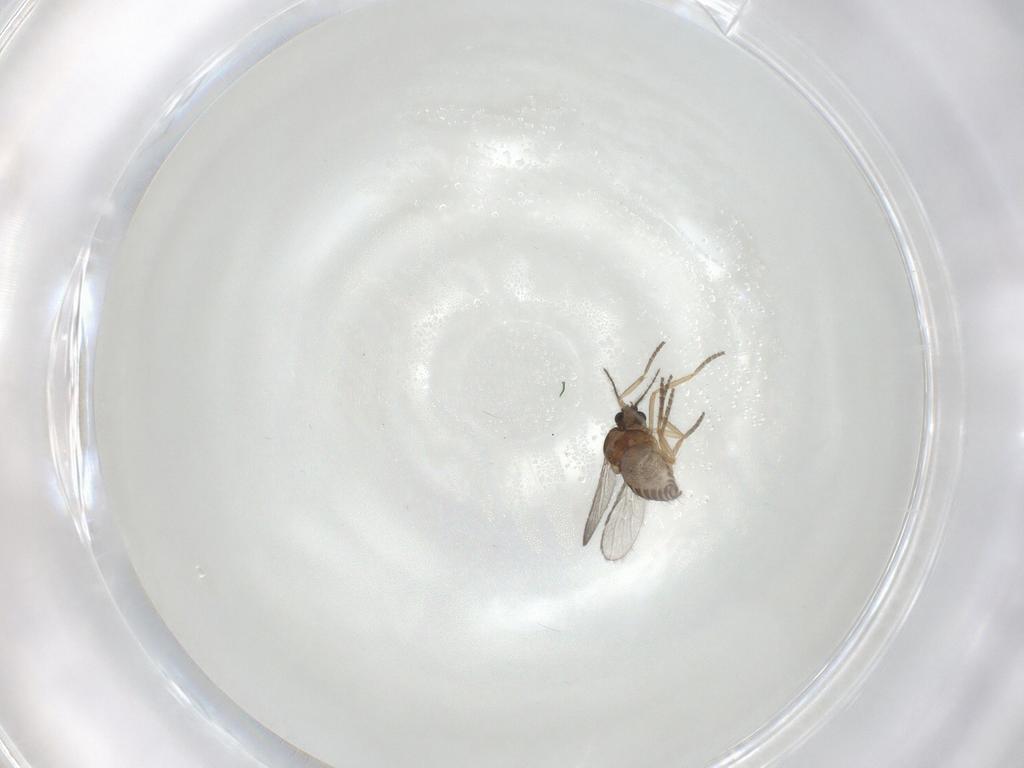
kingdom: Animalia
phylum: Arthropoda
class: Insecta
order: Diptera
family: Ceratopogonidae
